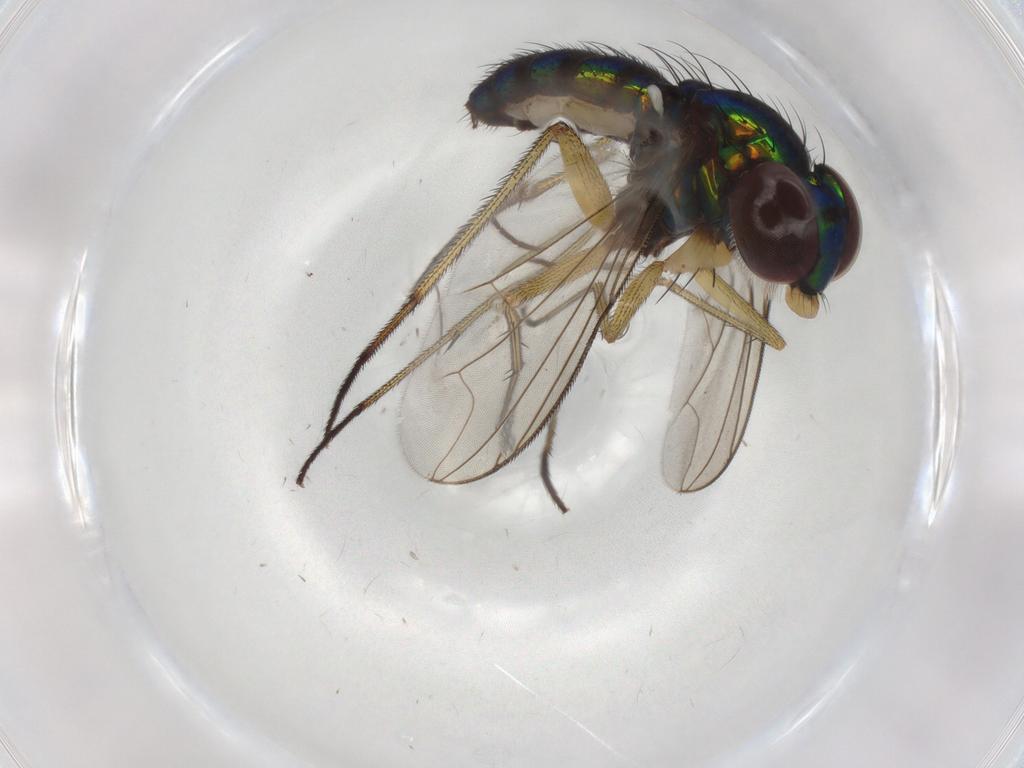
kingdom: Animalia
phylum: Arthropoda
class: Insecta
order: Diptera
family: Dolichopodidae
